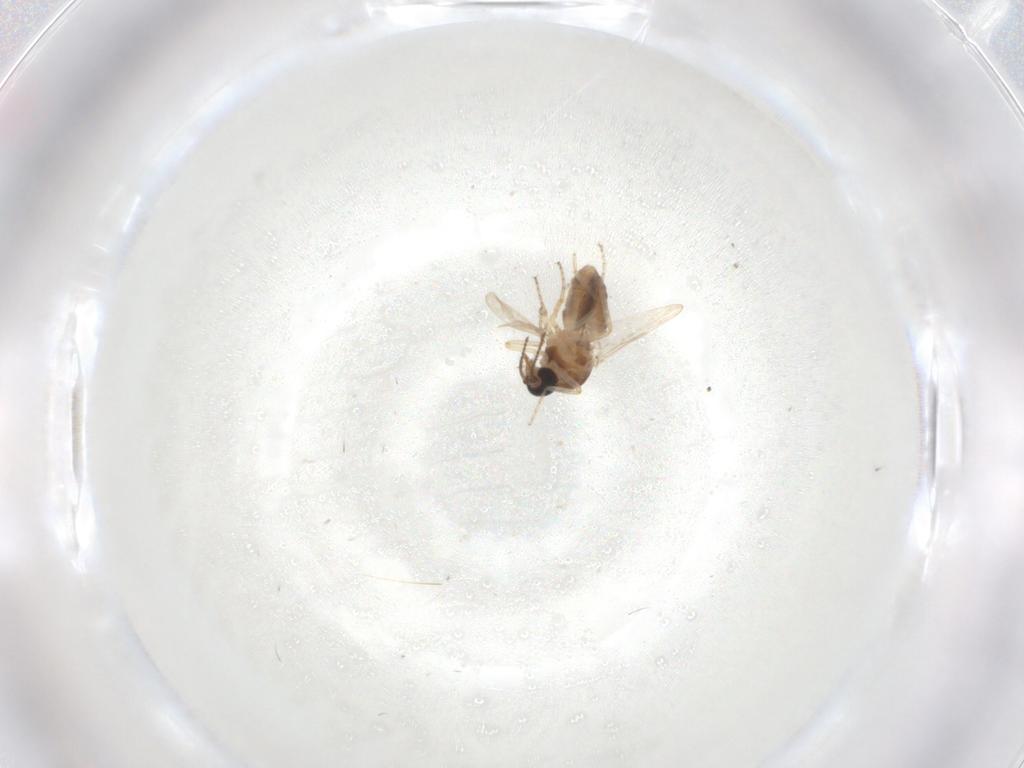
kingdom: Animalia
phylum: Arthropoda
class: Insecta
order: Diptera
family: Ceratopogonidae
